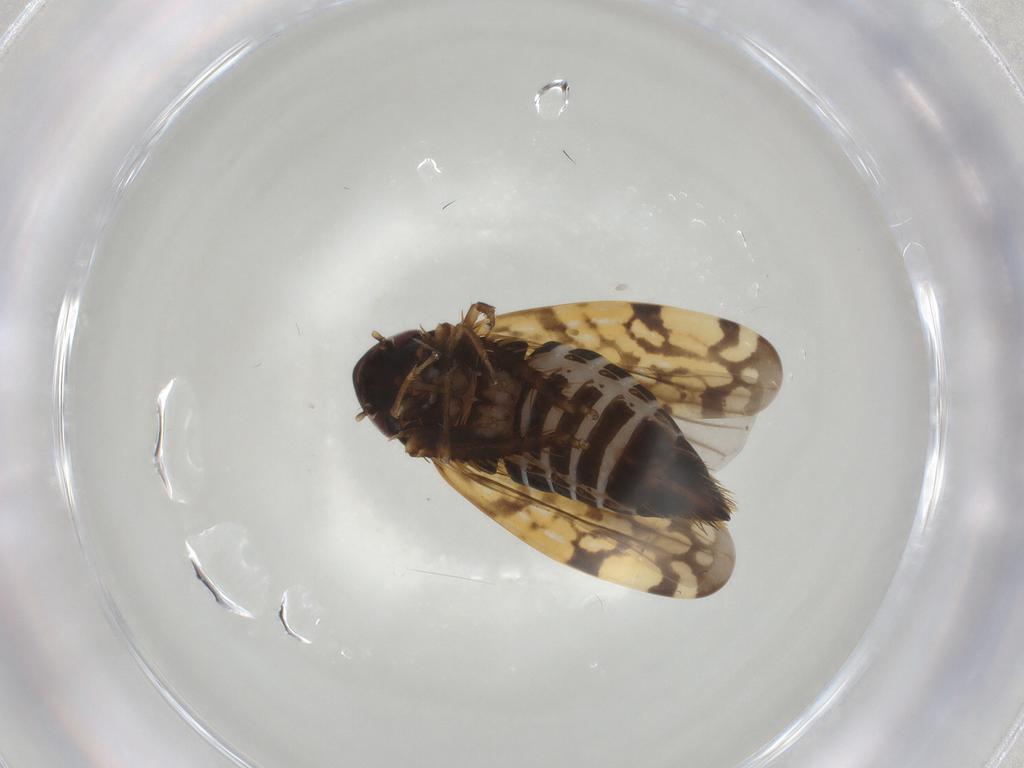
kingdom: Animalia
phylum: Arthropoda
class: Insecta
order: Hemiptera
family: Cicadellidae
